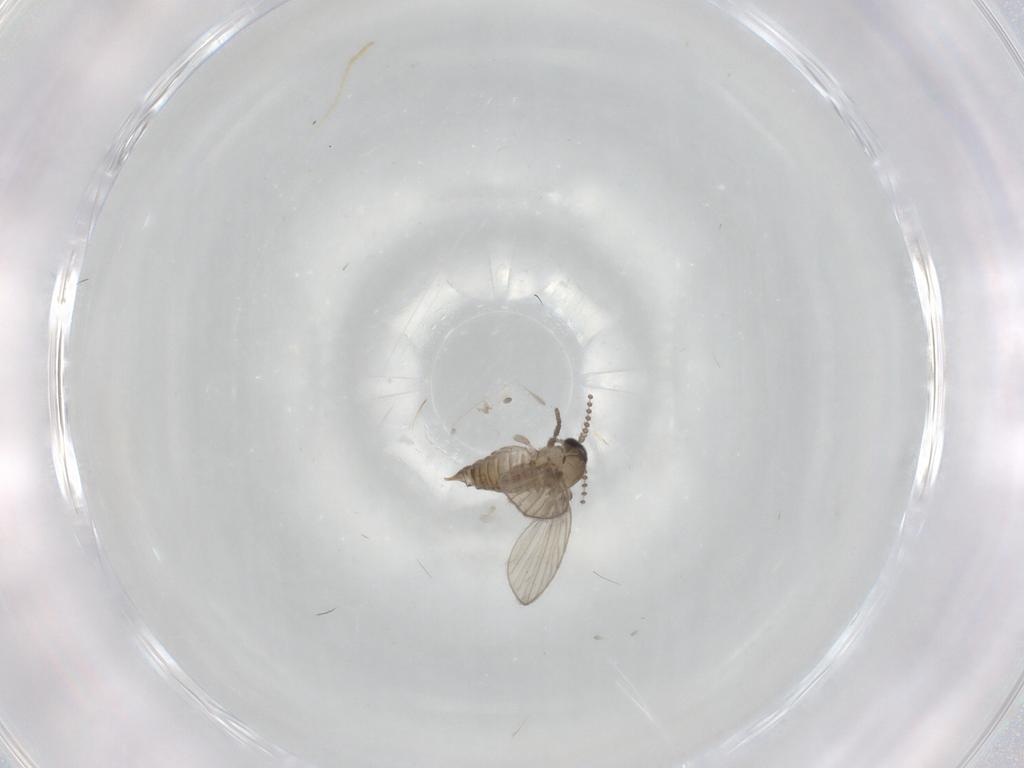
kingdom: Animalia
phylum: Arthropoda
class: Insecta
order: Diptera
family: Psychodidae
